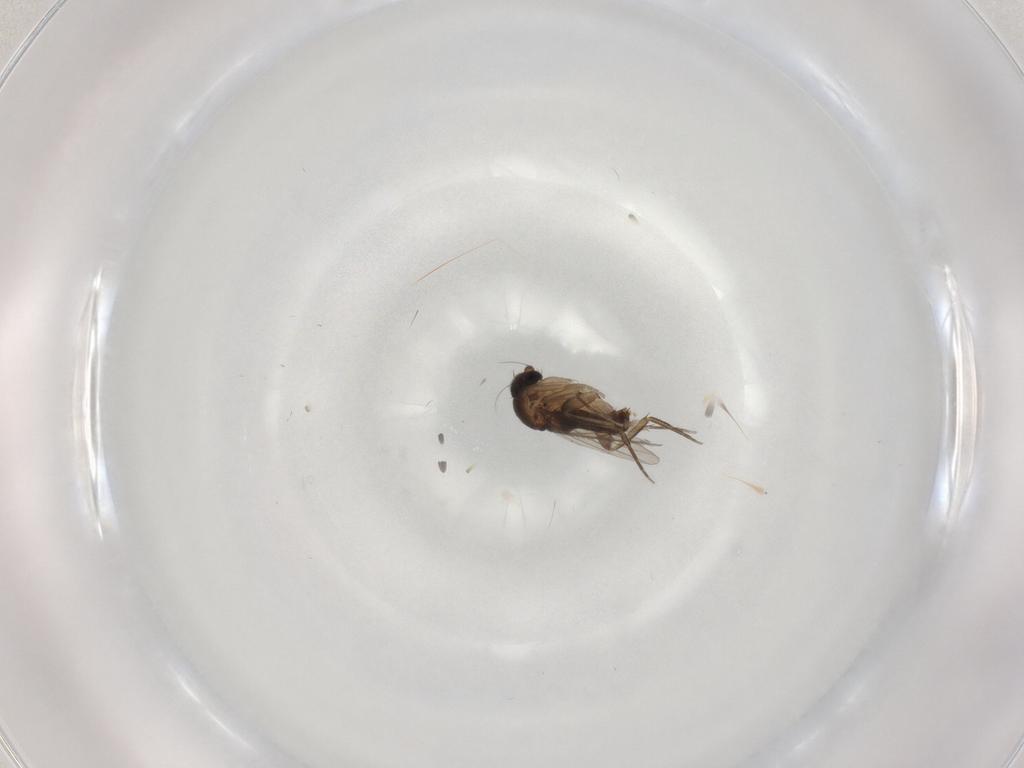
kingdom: Animalia
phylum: Arthropoda
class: Insecta
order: Diptera
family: Phoridae
